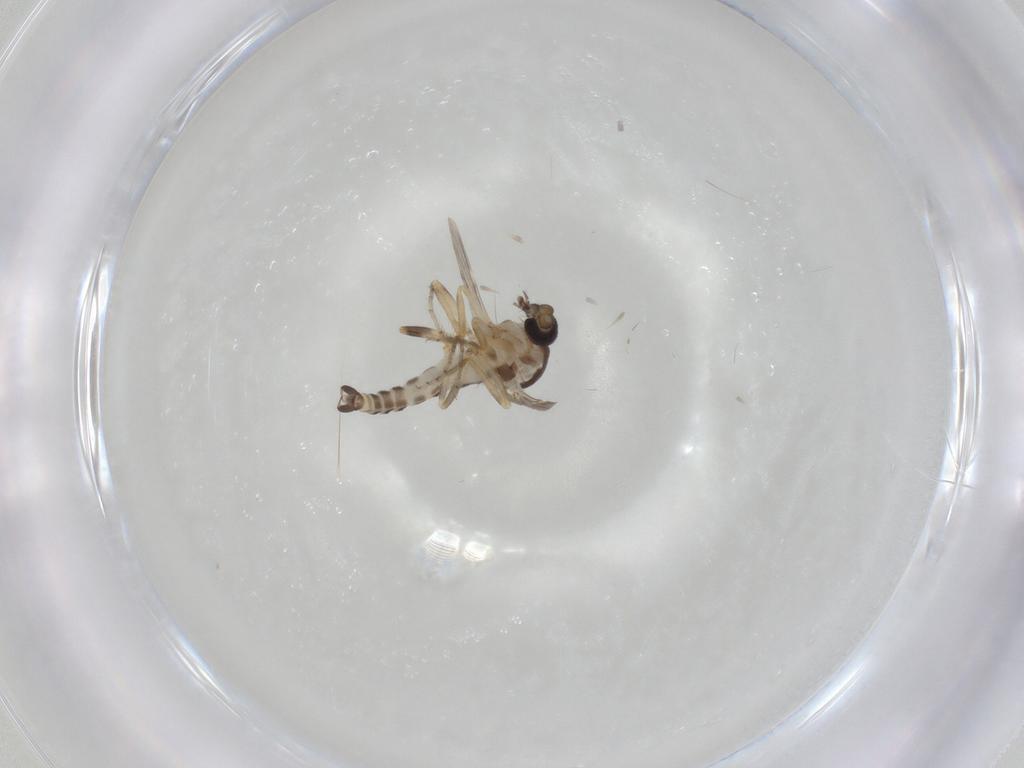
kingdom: Animalia
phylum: Arthropoda
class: Insecta
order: Diptera
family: Ceratopogonidae
